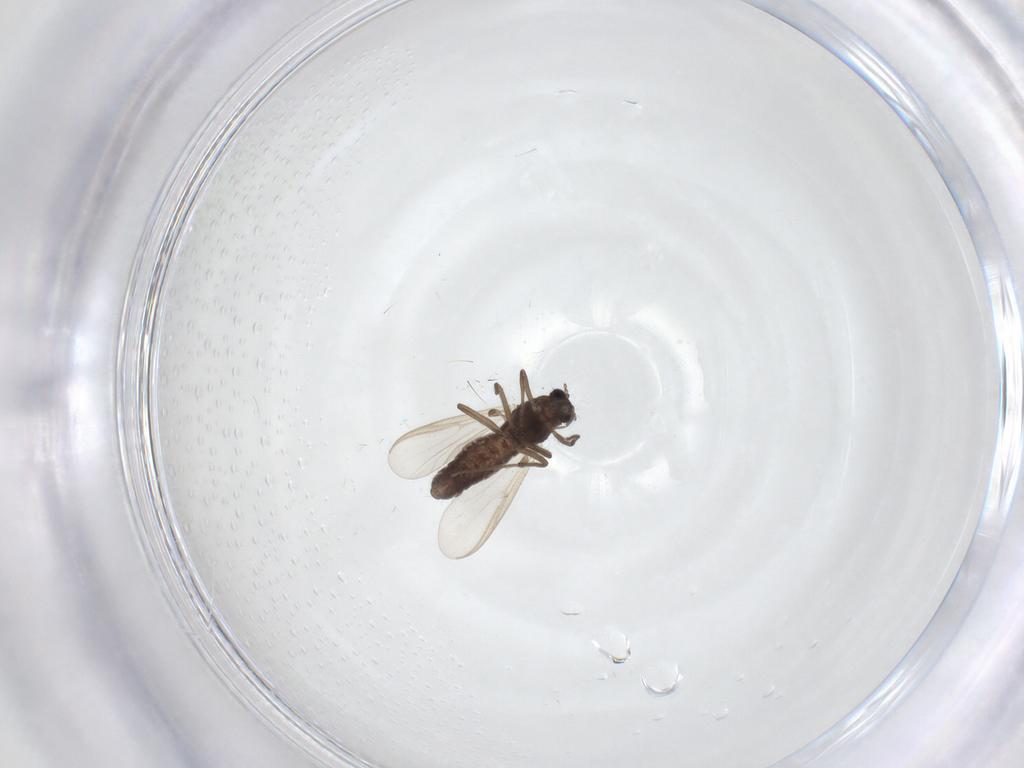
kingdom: Animalia
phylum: Arthropoda
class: Insecta
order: Diptera
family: Chironomidae
